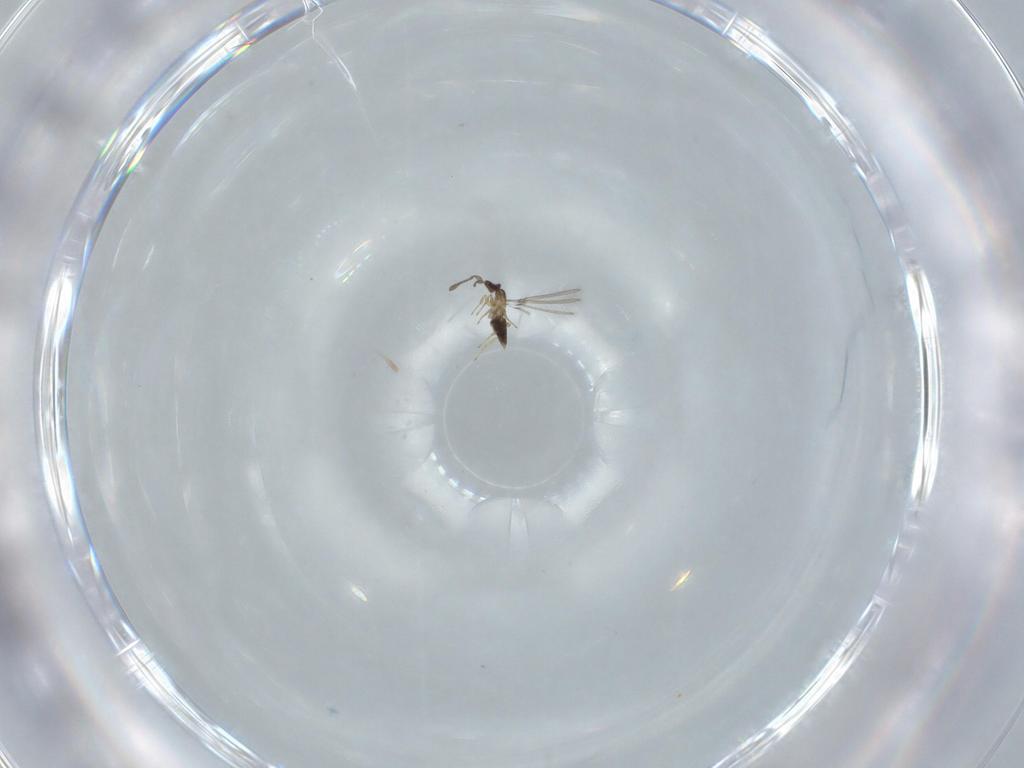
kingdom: Animalia
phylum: Arthropoda
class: Insecta
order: Hymenoptera
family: Mymaridae
